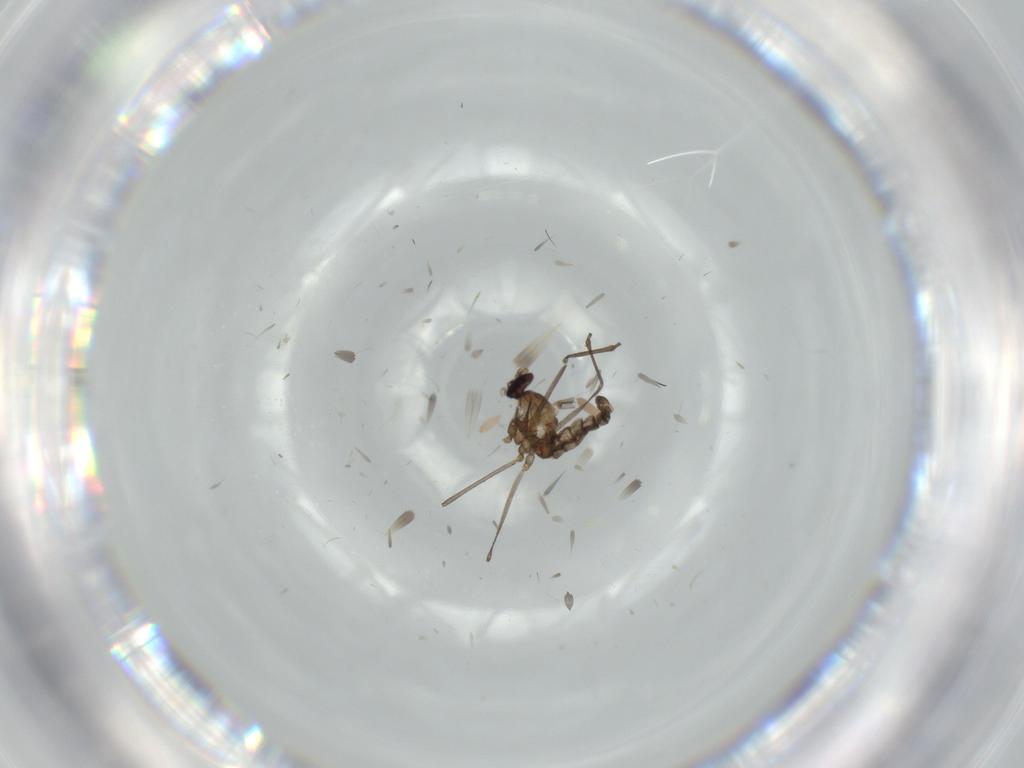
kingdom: Animalia
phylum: Arthropoda
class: Insecta
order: Diptera
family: Cecidomyiidae
